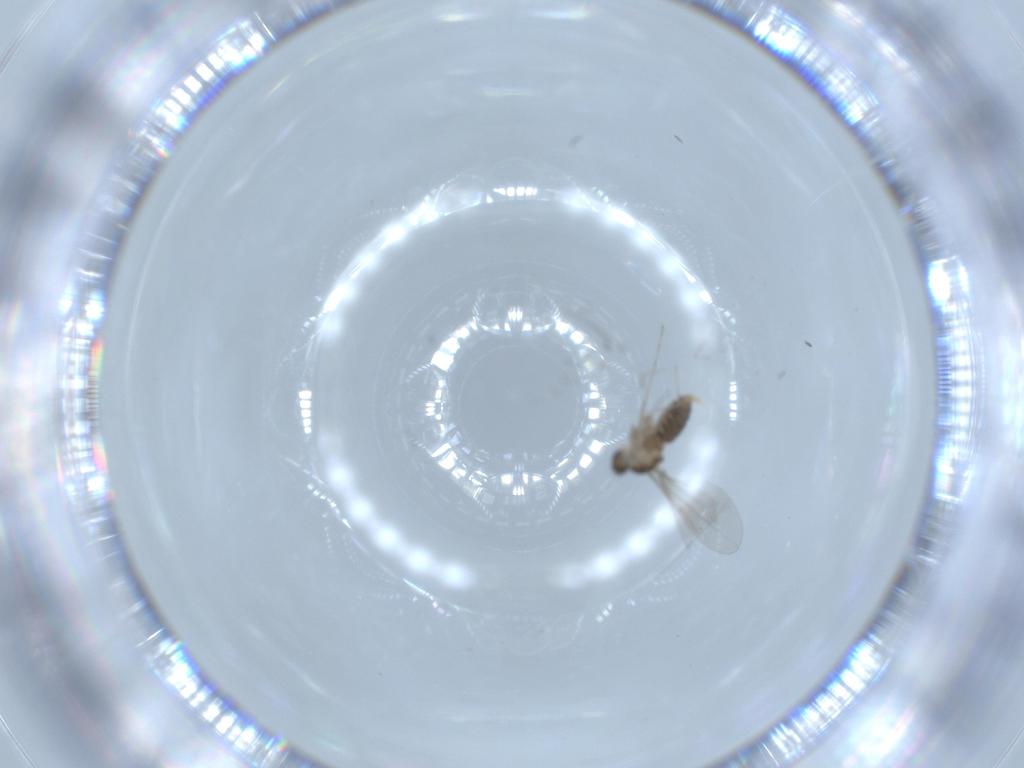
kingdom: Animalia
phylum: Arthropoda
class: Insecta
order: Diptera
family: Cecidomyiidae
